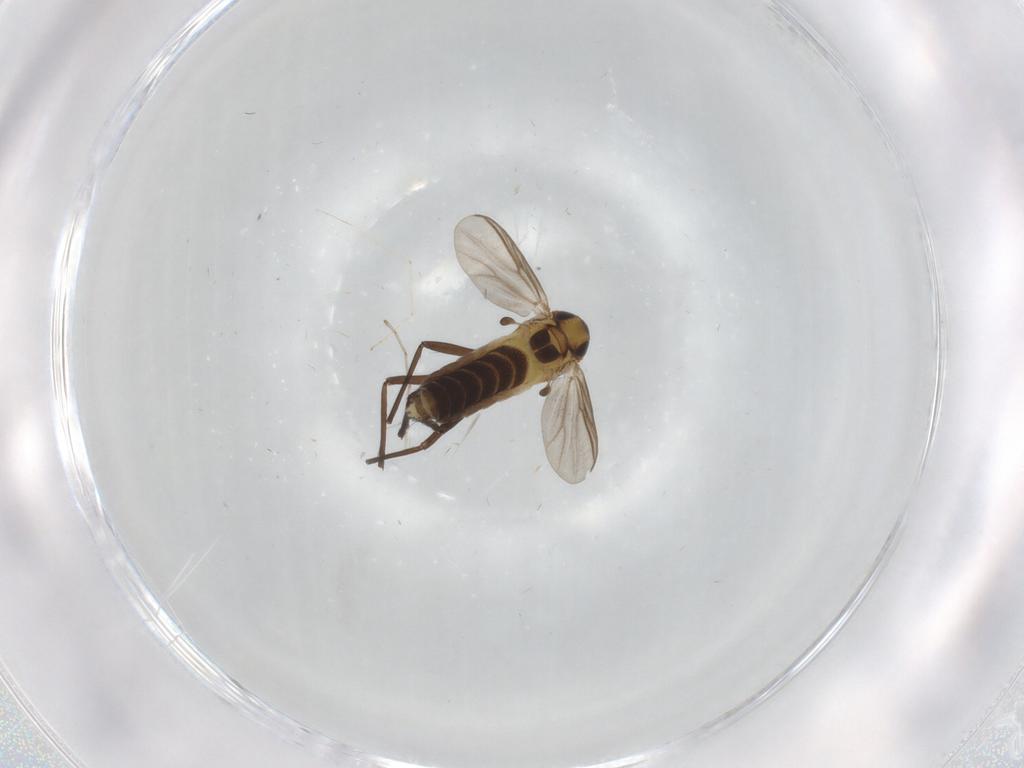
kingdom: Animalia
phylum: Arthropoda
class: Insecta
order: Diptera
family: Chironomidae
